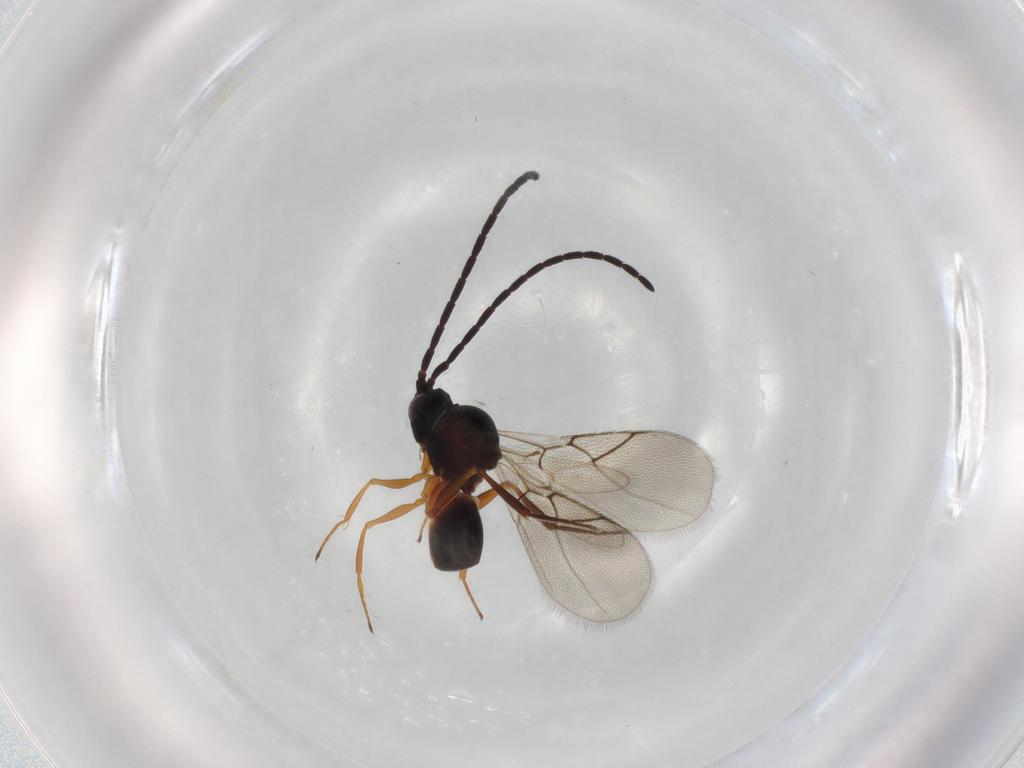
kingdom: Animalia
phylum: Arthropoda
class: Insecta
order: Hymenoptera
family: Figitidae
